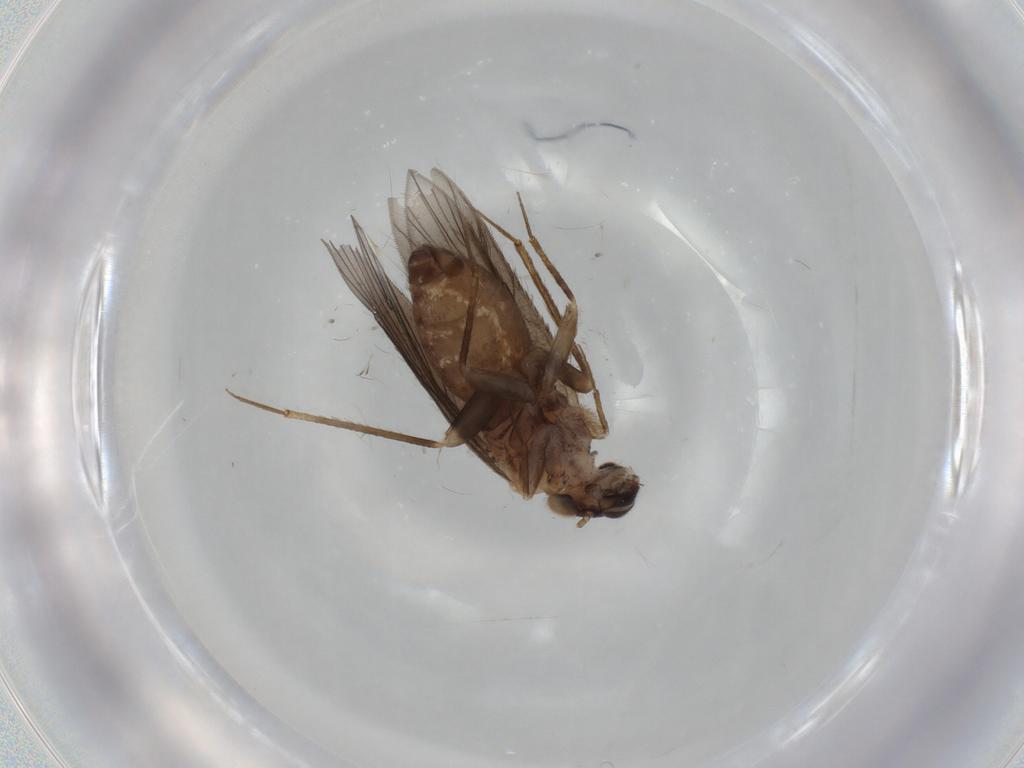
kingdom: Animalia
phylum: Arthropoda
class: Insecta
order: Psocodea
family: Lepidopsocidae
